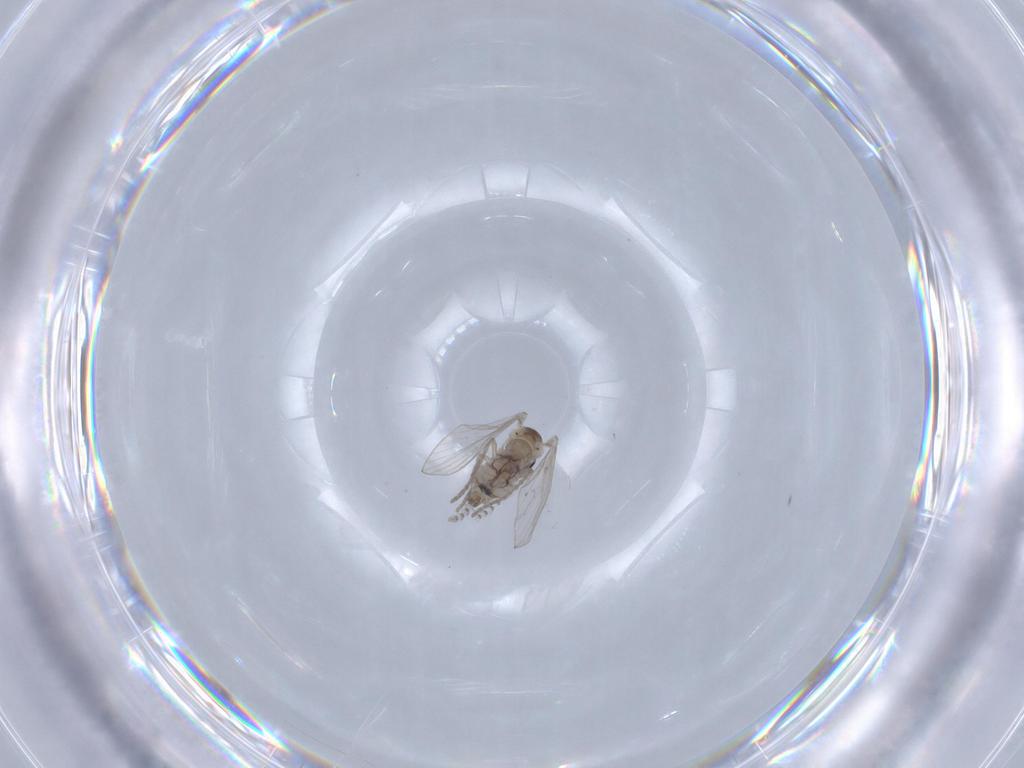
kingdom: Animalia
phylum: Arthropoda
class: Insecta
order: Diptera
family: Psychodidae
